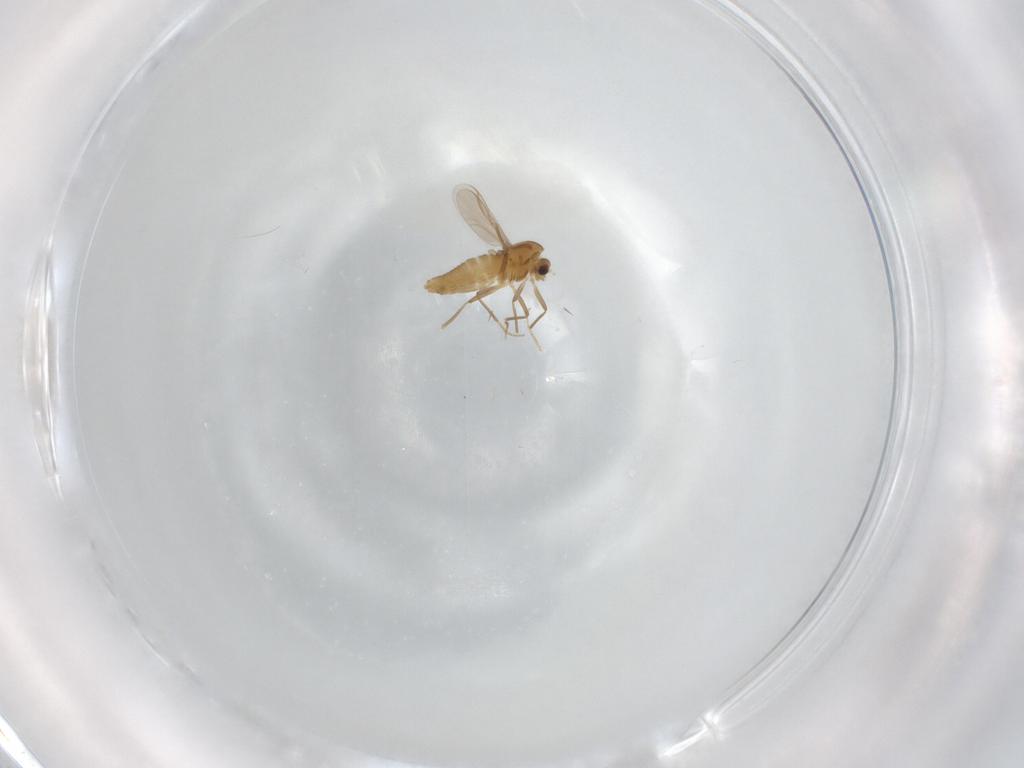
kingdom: Animalia
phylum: Arthropoda
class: Insecta
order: Diptera
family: Chironomidae
